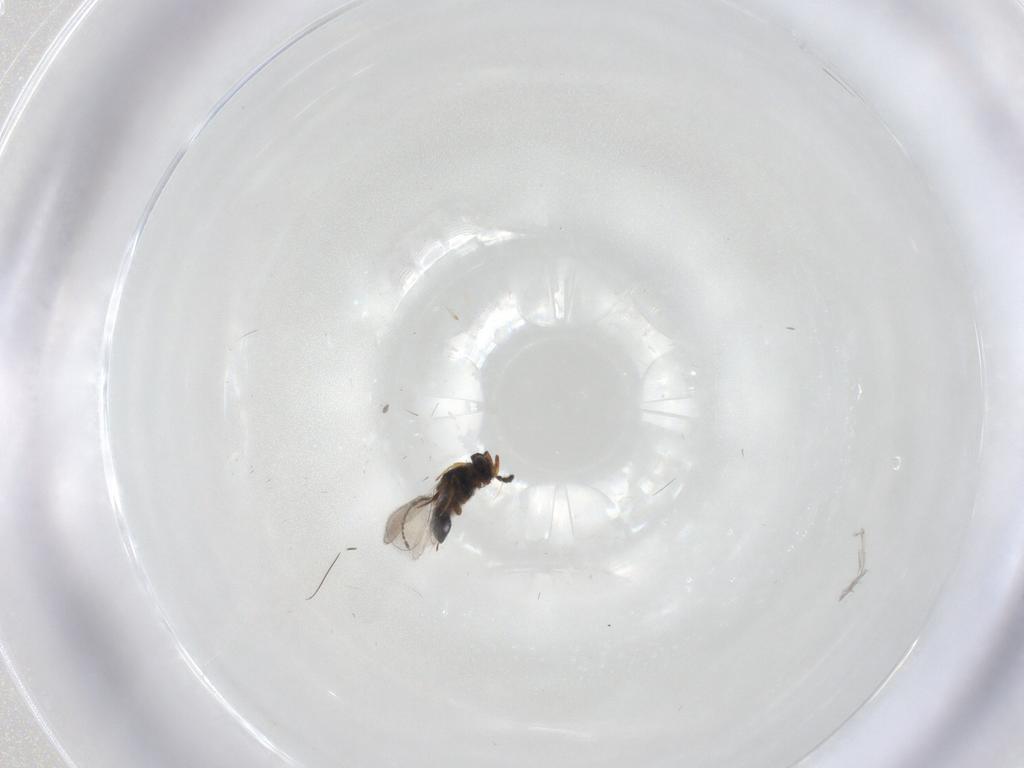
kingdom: Animalia
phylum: Arthropoda
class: Insecta
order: Hymenoptera
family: Platygastridae
